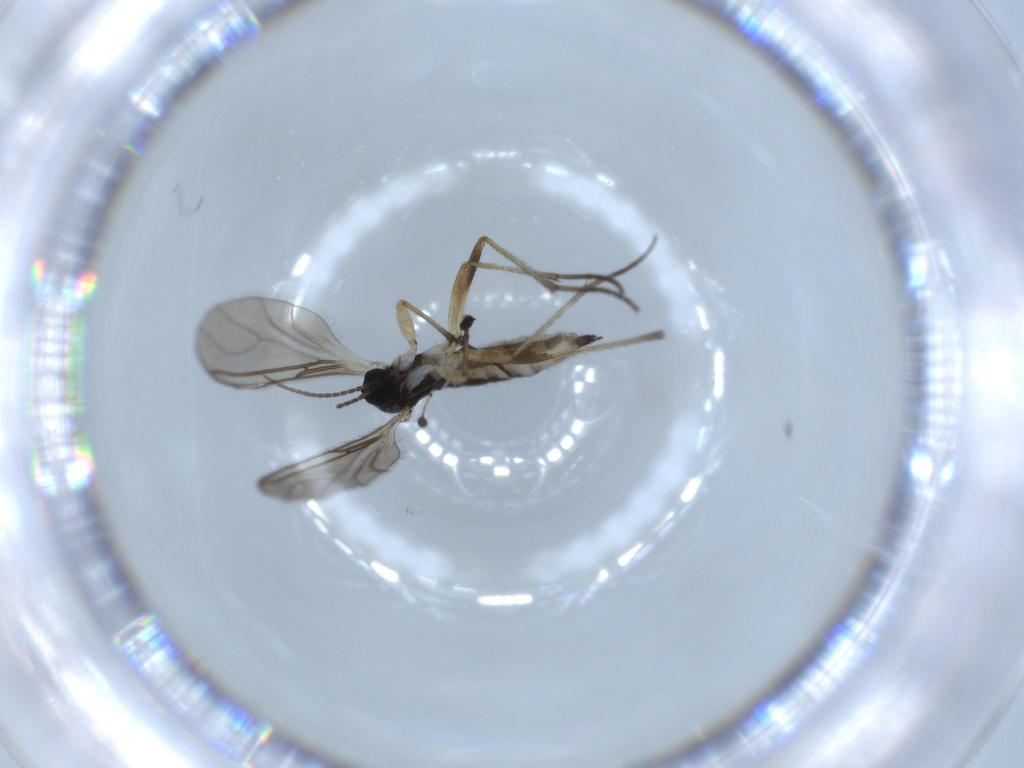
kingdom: Animalia
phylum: Arthropoda
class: Insecta
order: Diptera
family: Sciaridae
